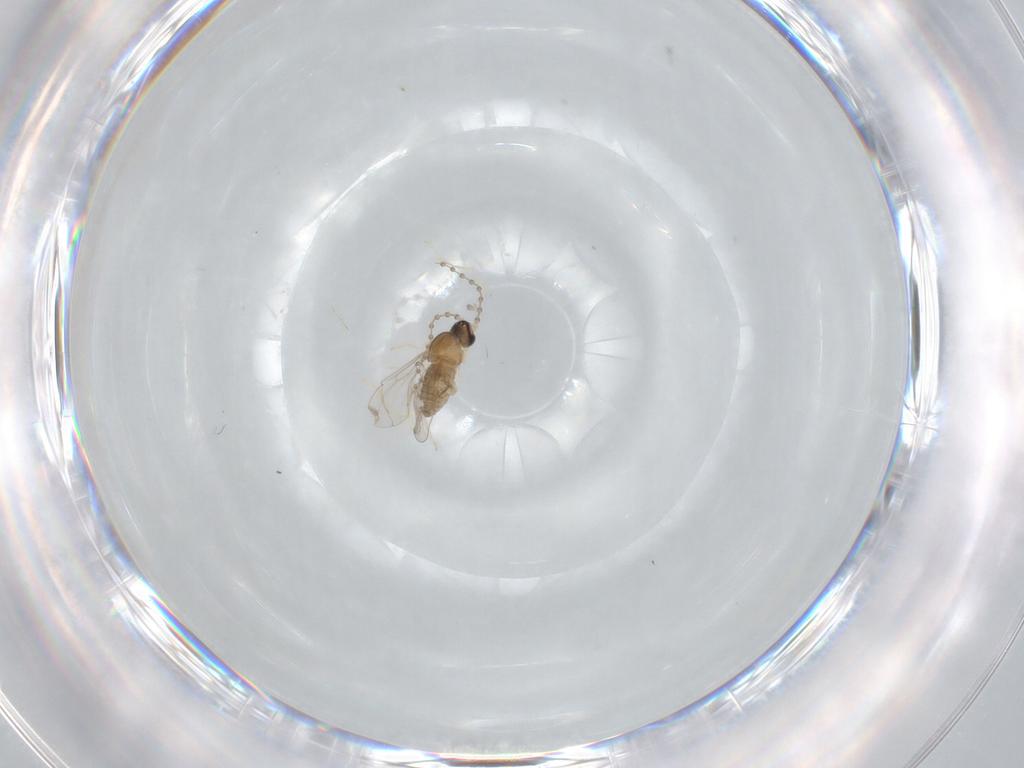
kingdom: Animalia
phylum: Arthropoda
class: Insecta
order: Diptera
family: Cecidomyiidae
